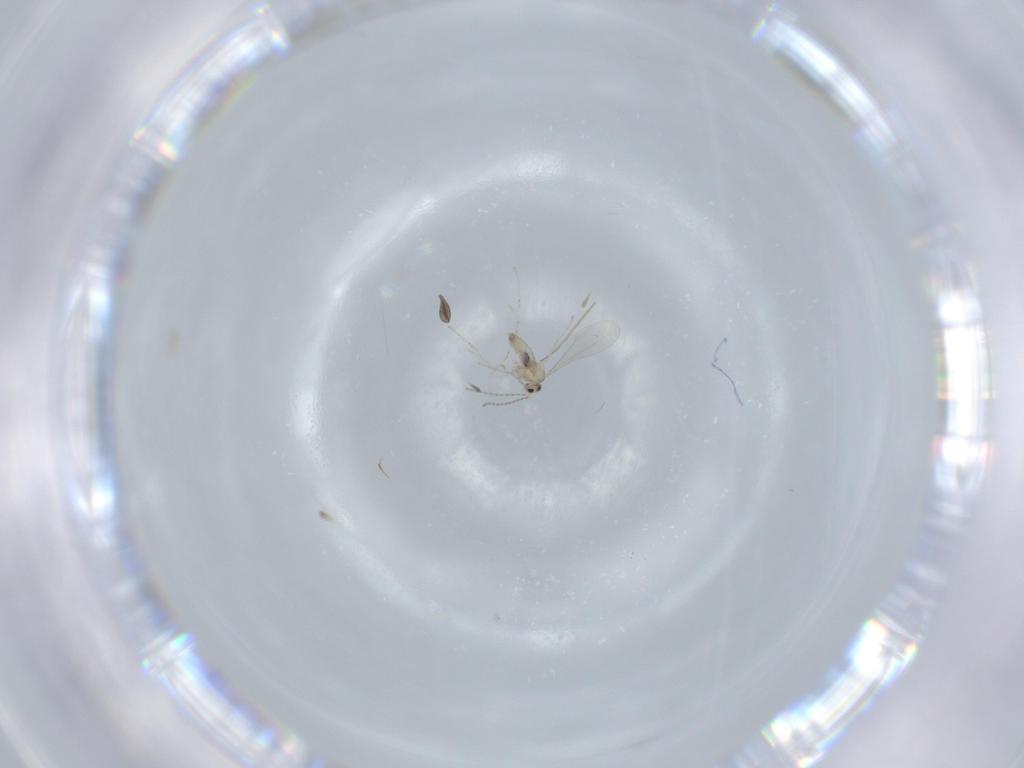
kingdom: Animalia
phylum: Arthropoda
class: Insecta
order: Diptera
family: Cecidomyiidae
